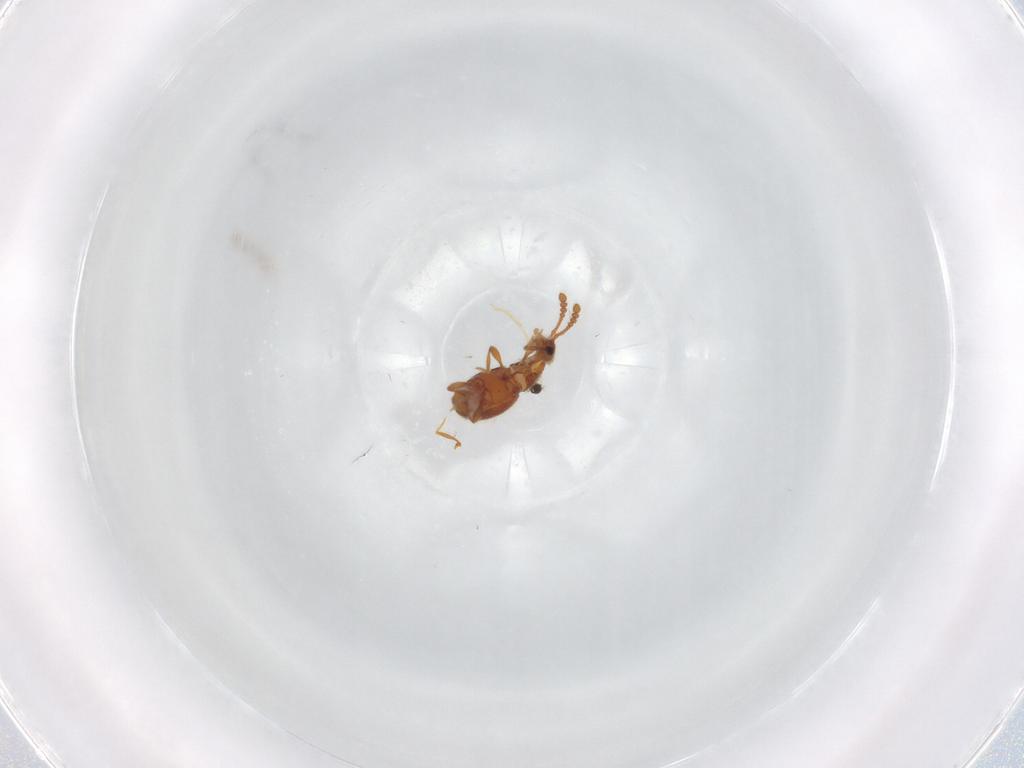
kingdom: Animalia
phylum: Arthropoda
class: Insecta
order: Coleoptera
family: Staphylinidae
